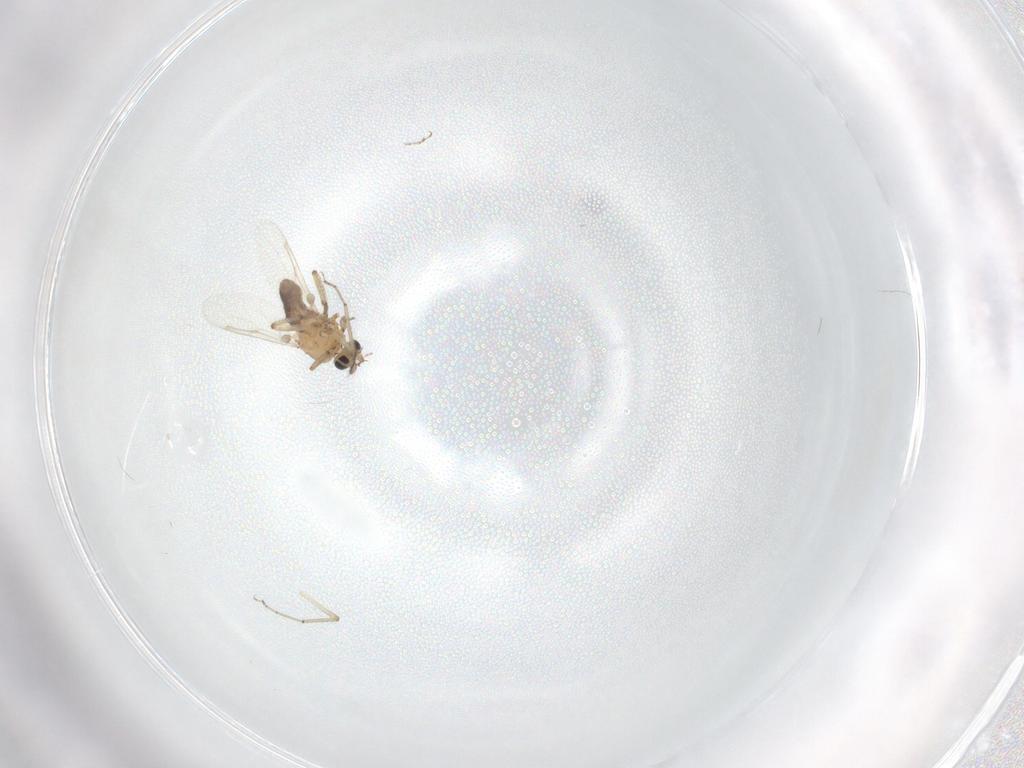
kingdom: Animalia
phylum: Arthropoda
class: Insecta
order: Diptera
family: Ceratopogonidae
